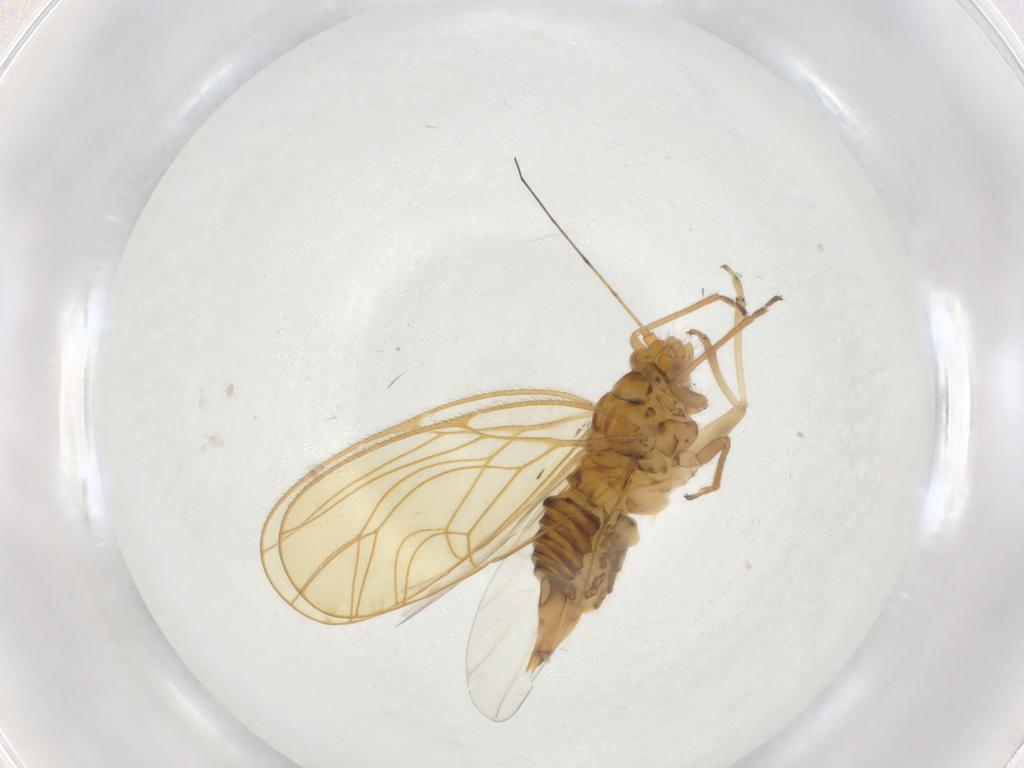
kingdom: Animalia
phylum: Arthropoda
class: Insecta
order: Hemiptera
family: Psyllidae
